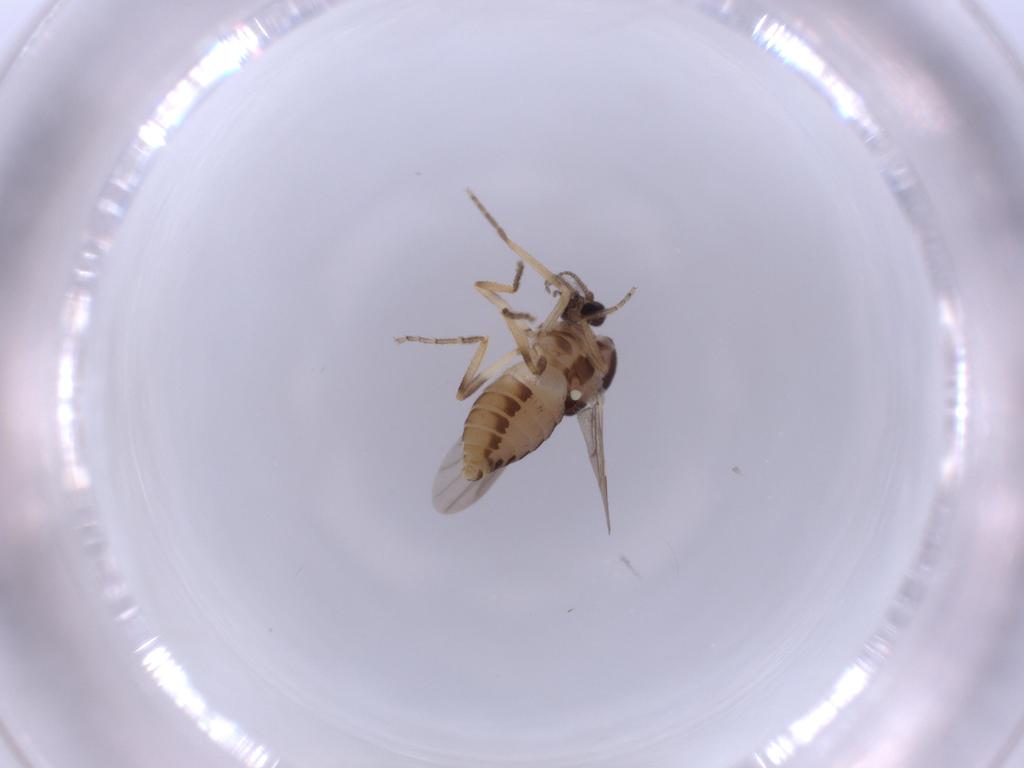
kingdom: Animalia
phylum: Arthropoda
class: Insecta
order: Diptera
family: Ceratopogonidae
